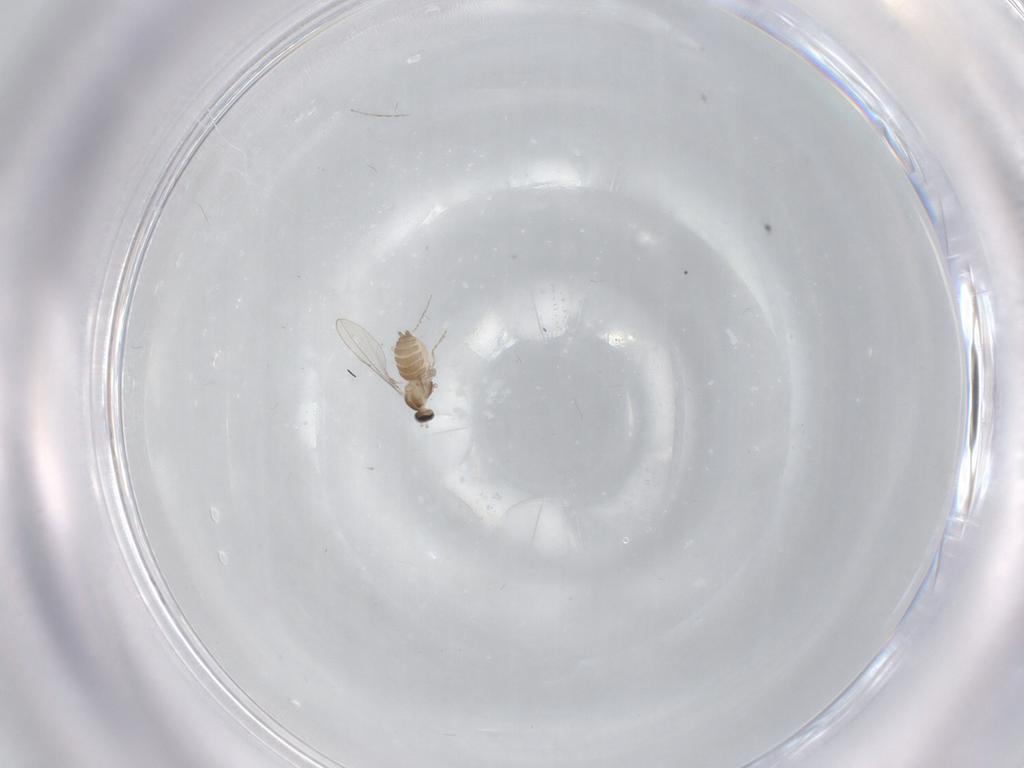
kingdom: Animalia
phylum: Arthropoda
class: Insecta
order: Diptera
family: Cecidomyiidae
